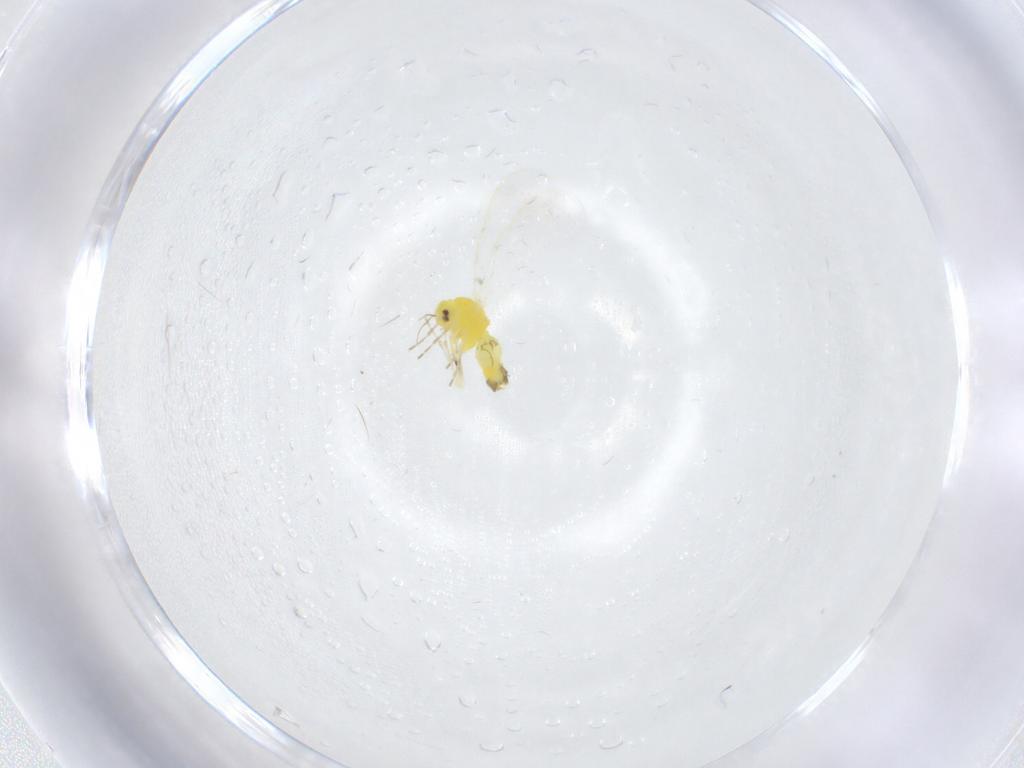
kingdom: Animalia
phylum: Arthropoda
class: Insecta
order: Hemiptera
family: Aleyrodidae
